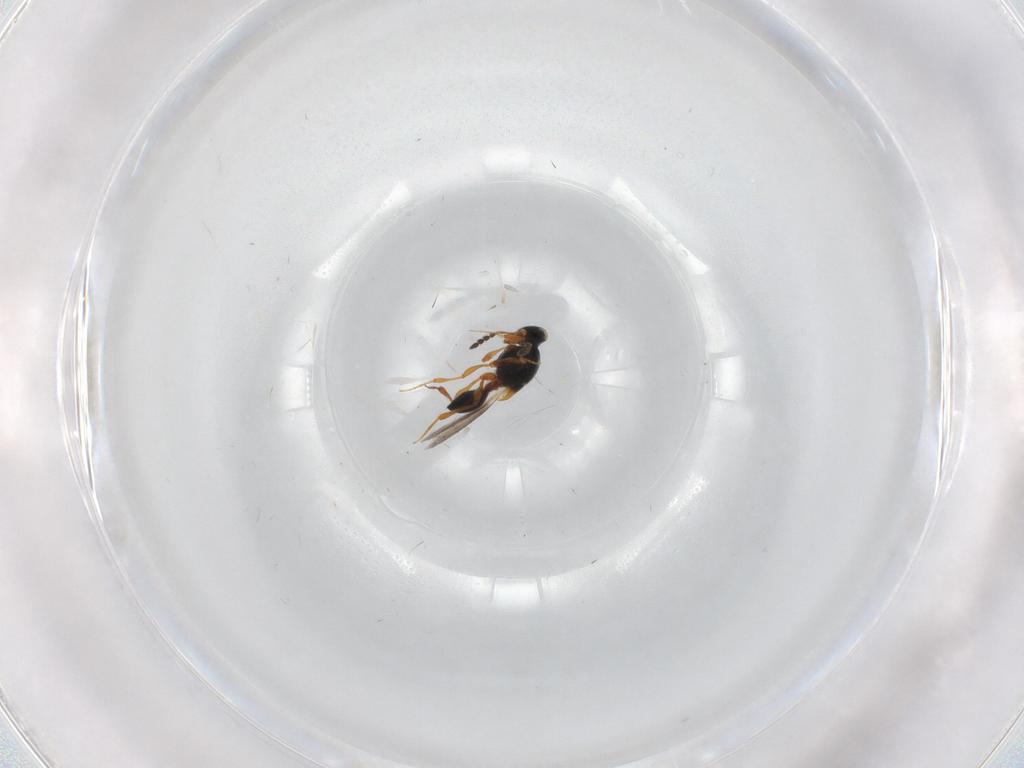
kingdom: Animalia
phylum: Arthropoda
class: Insecta
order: Hymenoptera
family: Platygastridae
